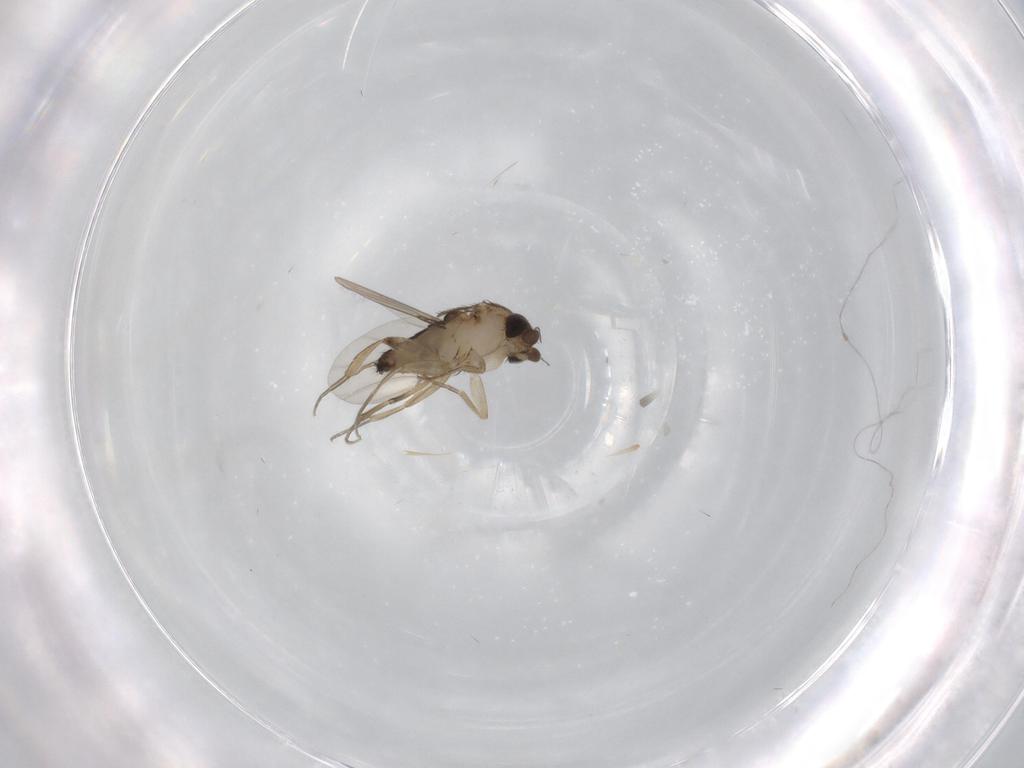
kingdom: Animalia
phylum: Arthropoda
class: Insecta
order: Diptera
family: Phoridae
